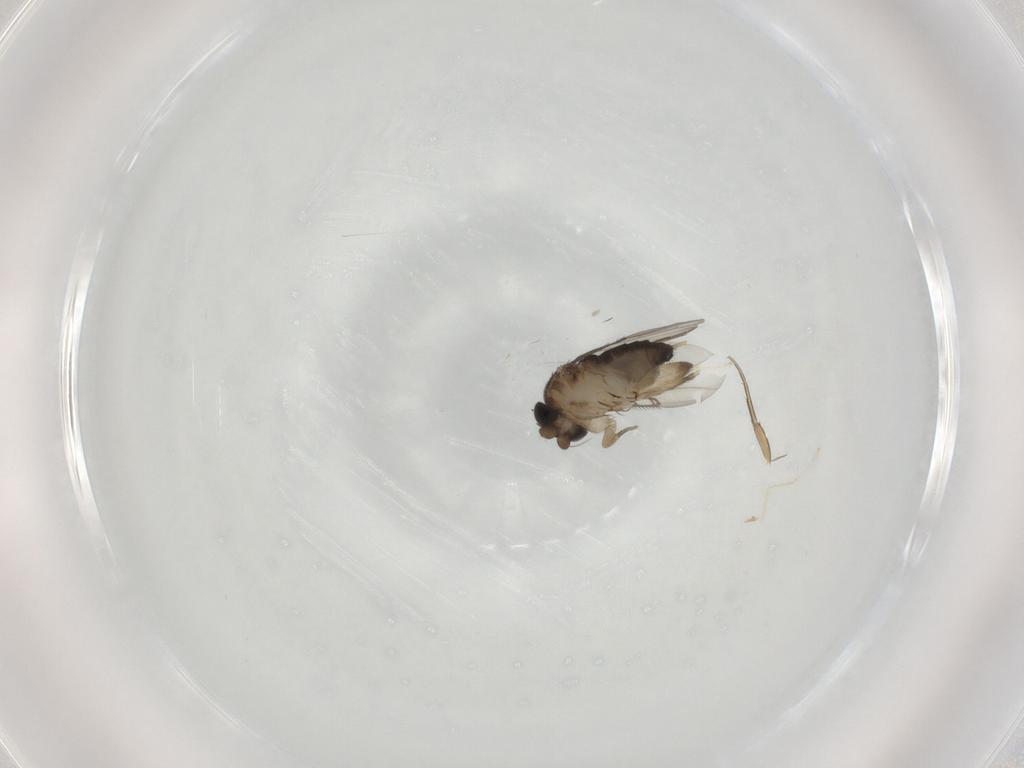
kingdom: Animalia
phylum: Arthropoda
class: Insecta
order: Diptera
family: Phoridae
